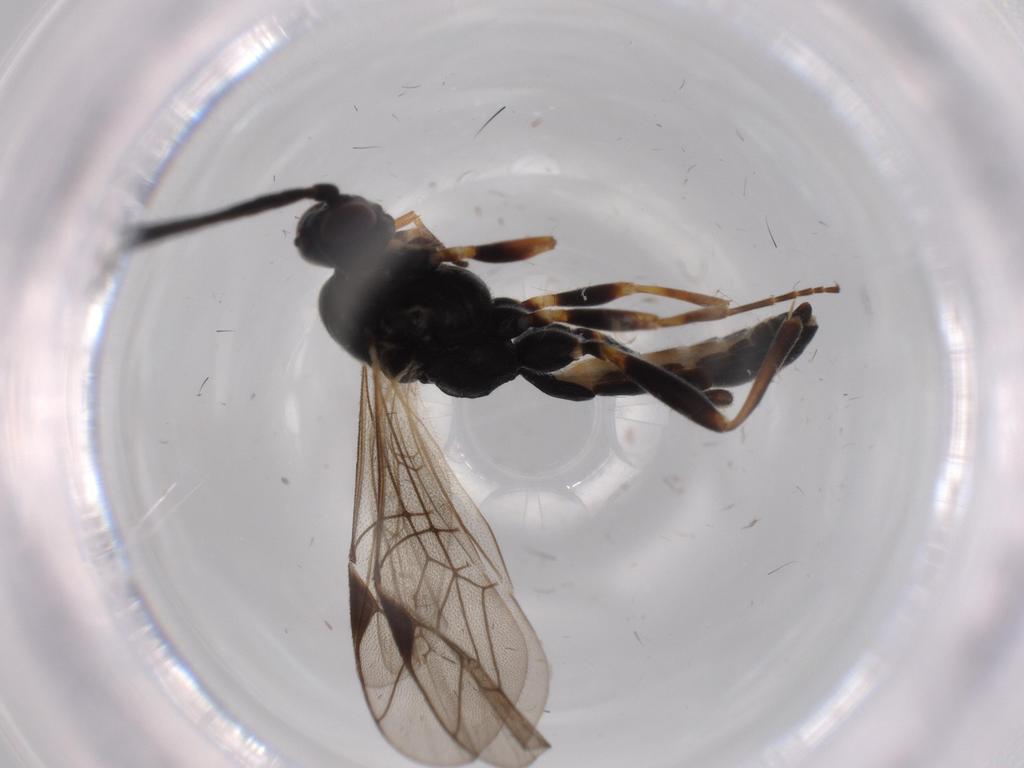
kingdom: Animalia
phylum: Arthropoda
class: Insecta
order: Hymenoptera
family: Ichneumonidae
